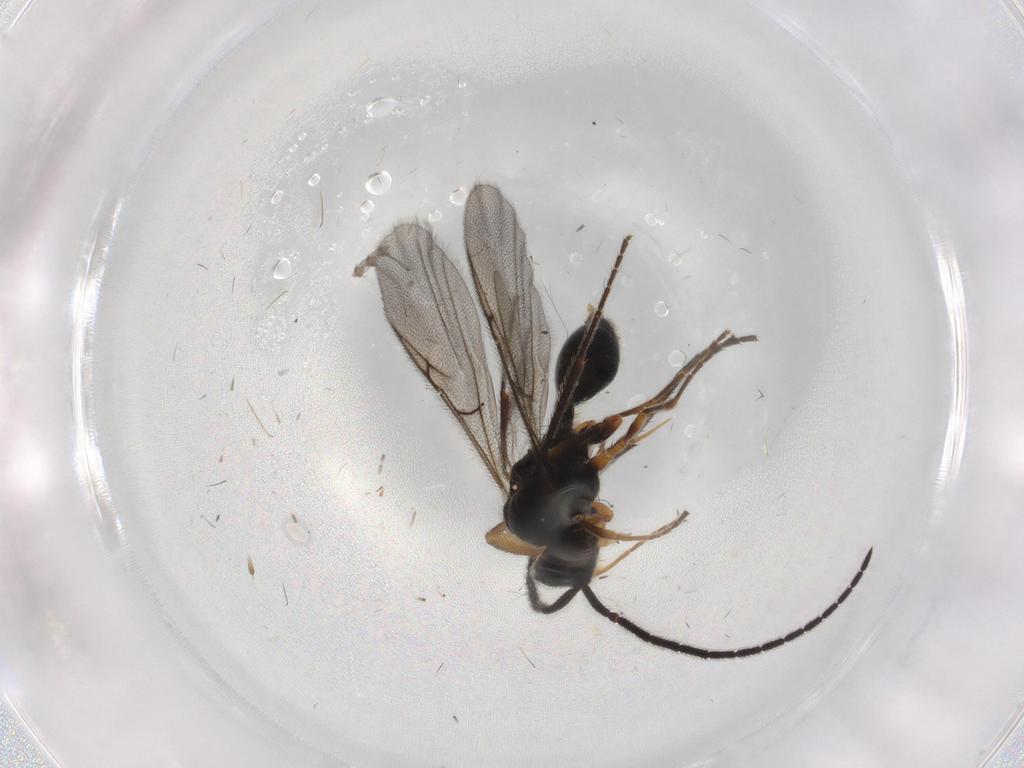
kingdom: Animalia
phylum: Arthropoda
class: Insecta
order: Hymenoptera
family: Diapriidae
